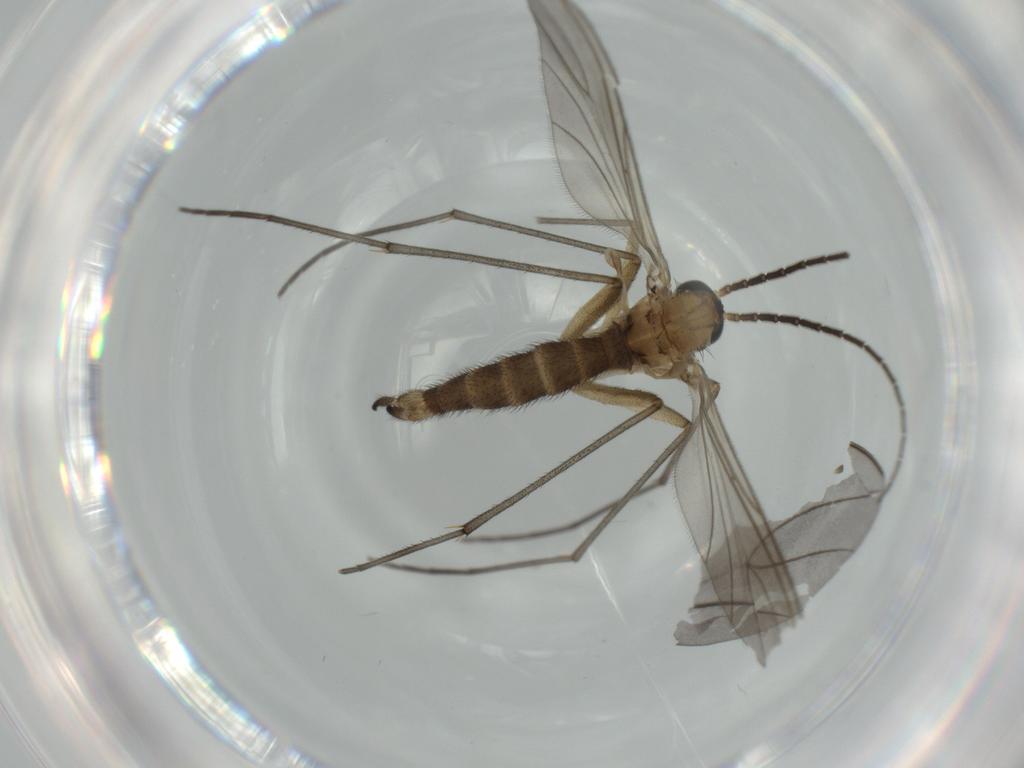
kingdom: Animalia
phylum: Arthropoda
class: Insecta
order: Diptera
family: Sciaridae
